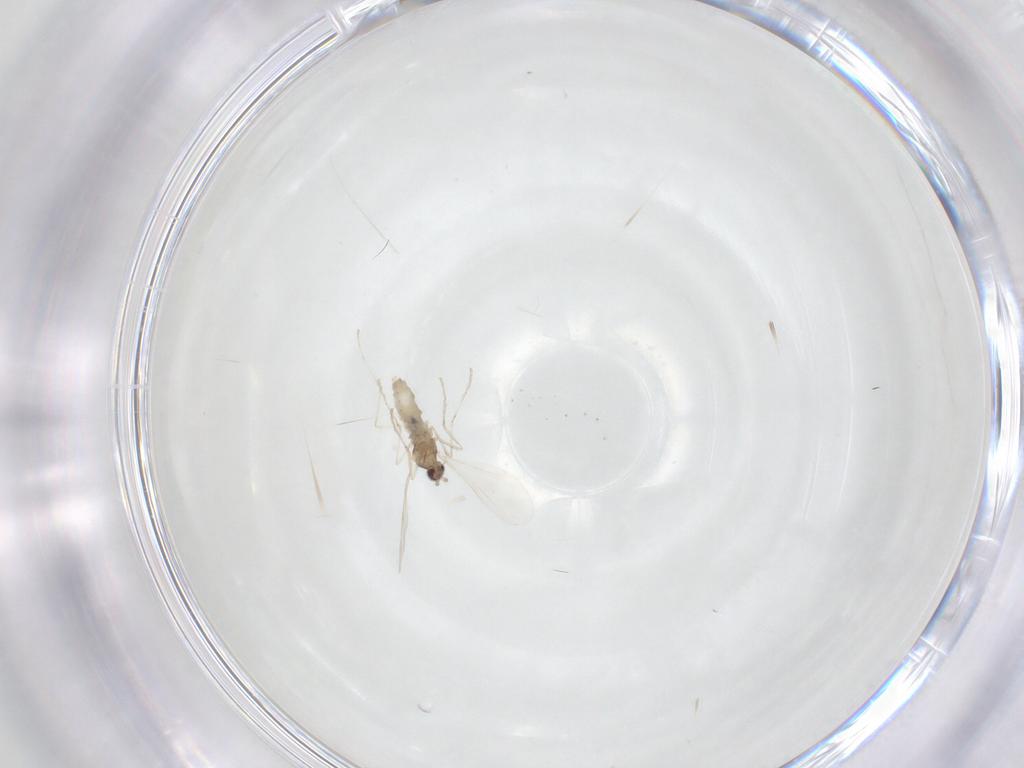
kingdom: Animalia
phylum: Arthropoda
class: Insecta
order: Diptera
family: Cecidomyiidae
